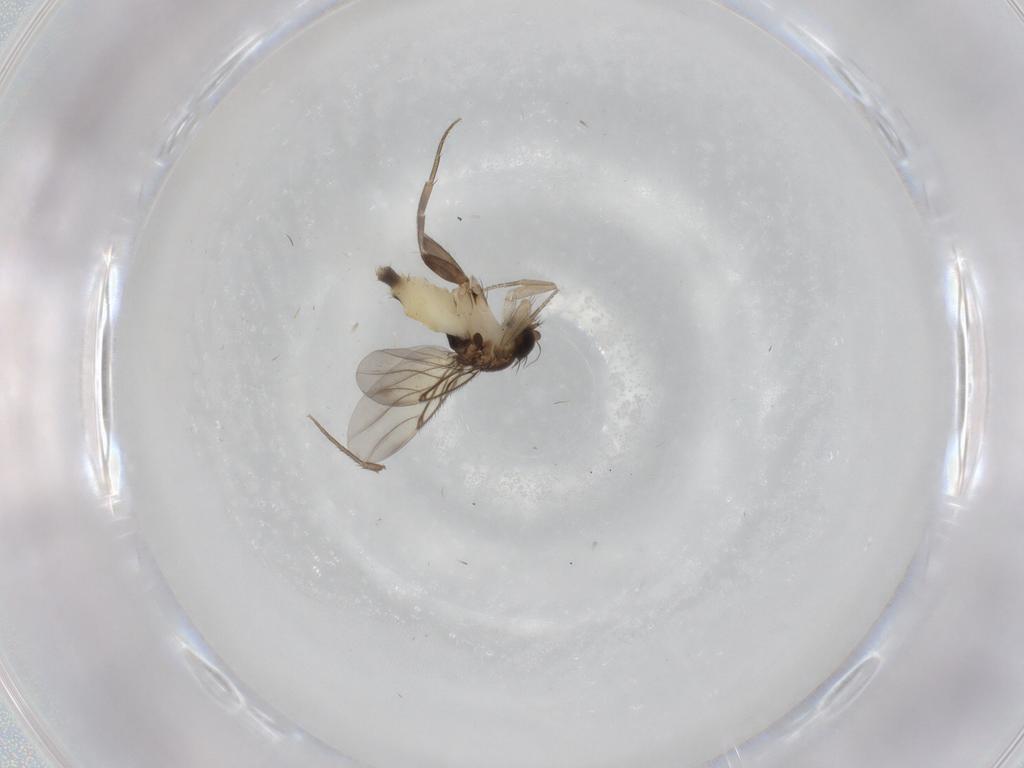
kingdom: Animalia
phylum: Arthropoda
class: Insecta
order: Diptera
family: Phoridae
